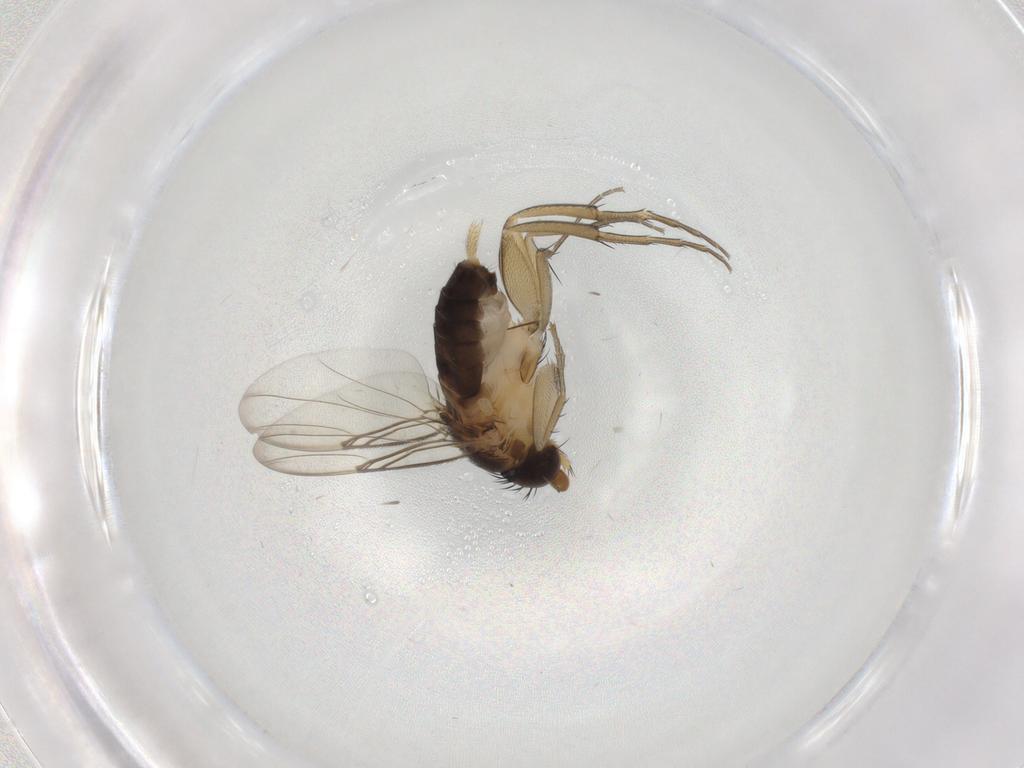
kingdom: Animalia
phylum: Arthropoda
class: Insecta
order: Diptera
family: Phoridae
